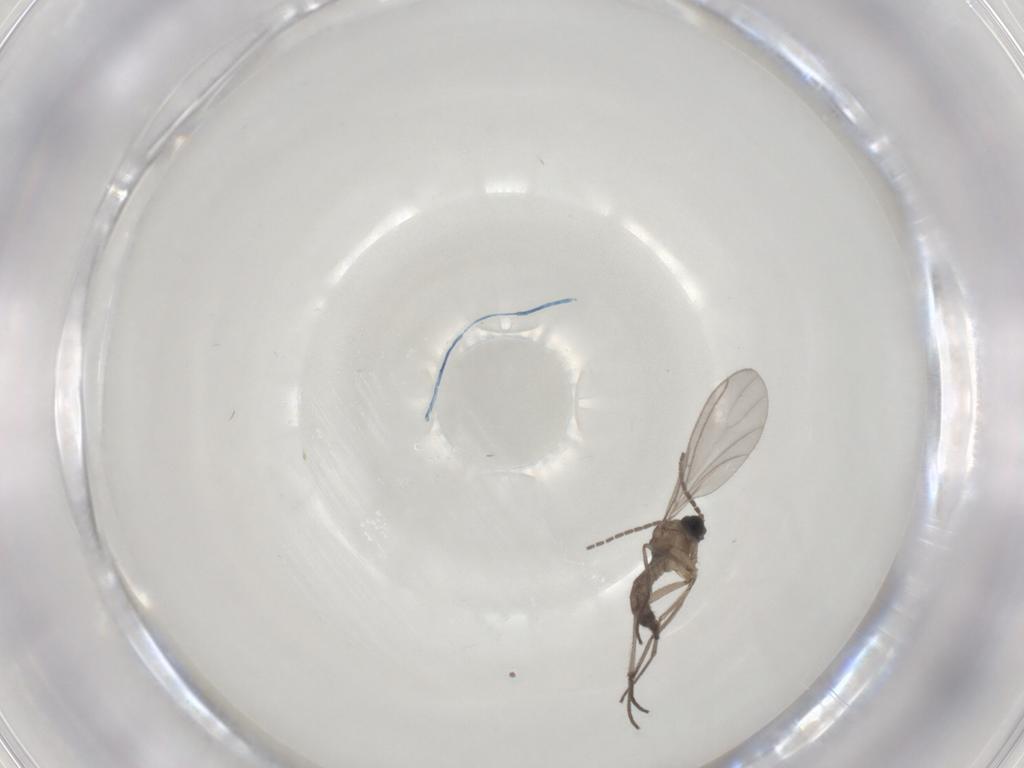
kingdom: Animalia
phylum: Arthropoda
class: Insecta
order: Diptera
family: Sciaridae
